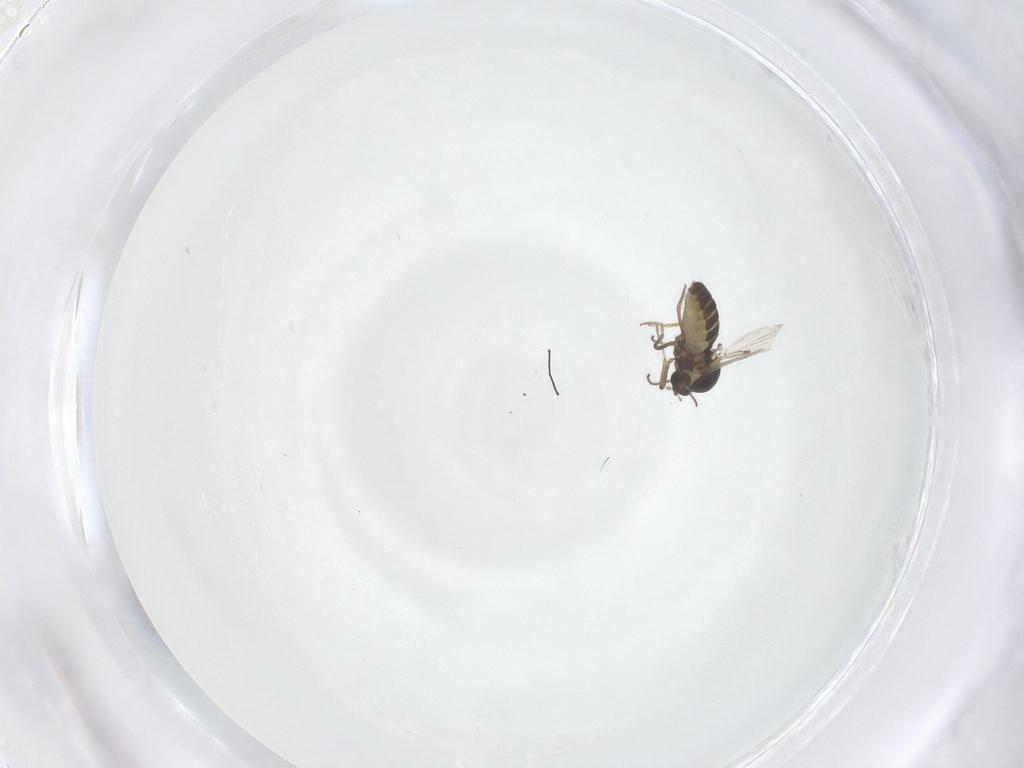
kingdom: Animalia
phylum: Arthropoda
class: Insecta
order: Diptera
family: Ceratopogonidae
